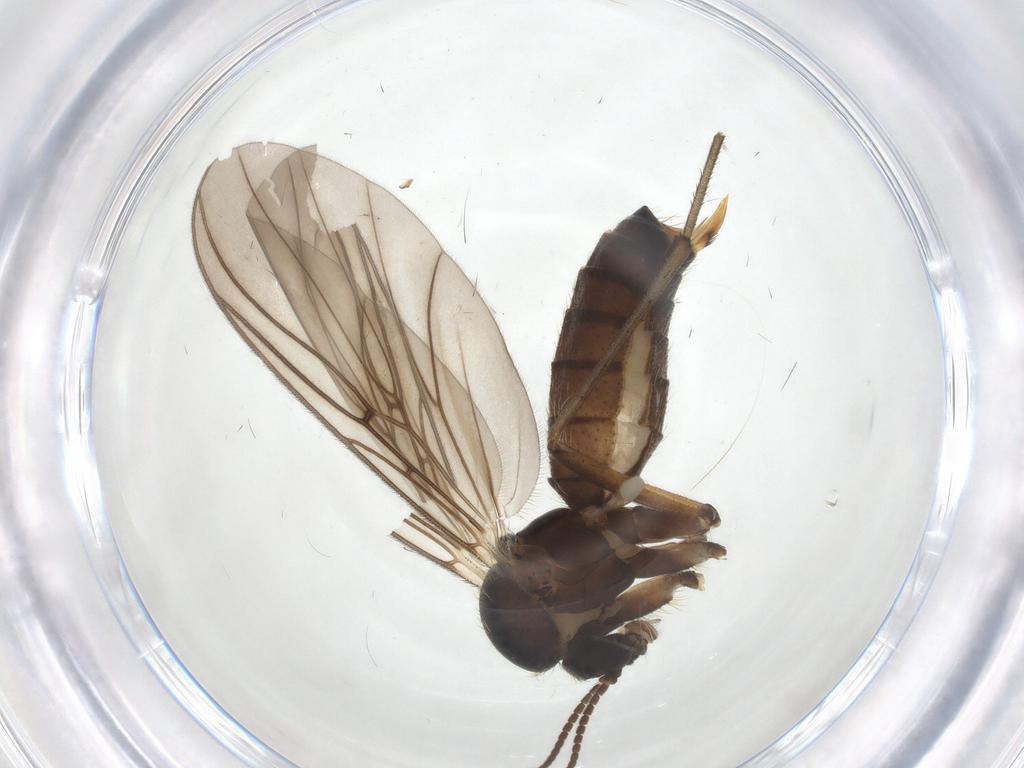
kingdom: Animalia
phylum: Arthropoda
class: Insecta
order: Diptera
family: Mycetophilidae
